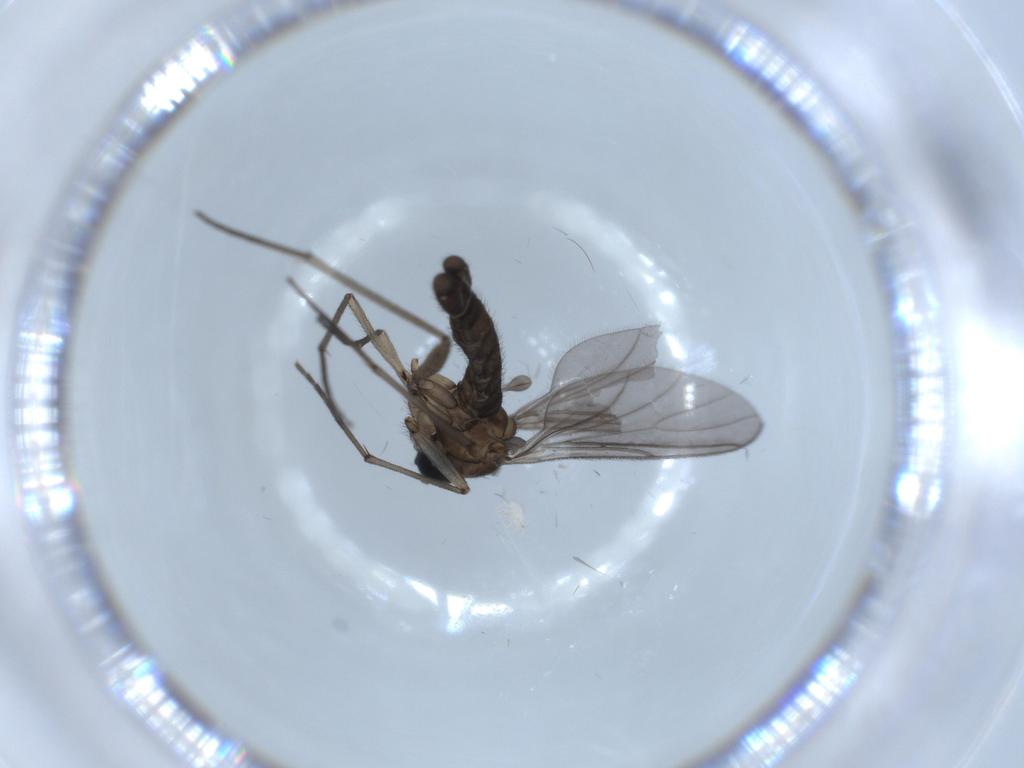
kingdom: Animalia
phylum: Arthropoda
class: Insecta
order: Diptera
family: Sciaridae
